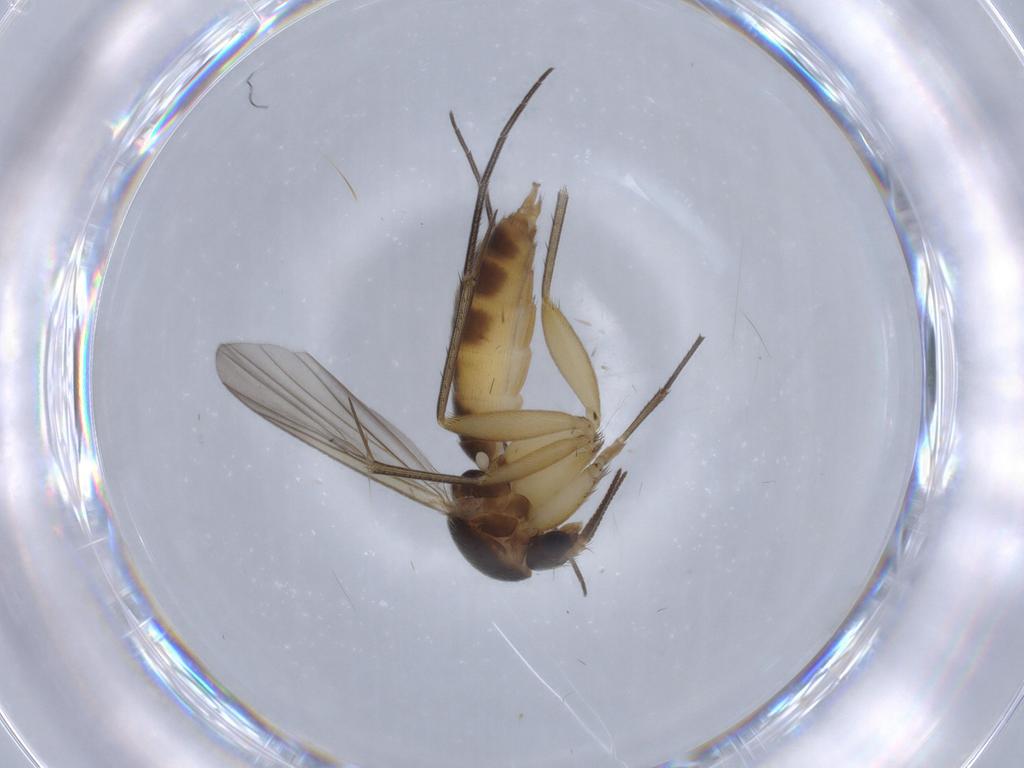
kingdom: Animalia
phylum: Arthropoda
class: Insecta
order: Diptera
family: Mycetophilidae
